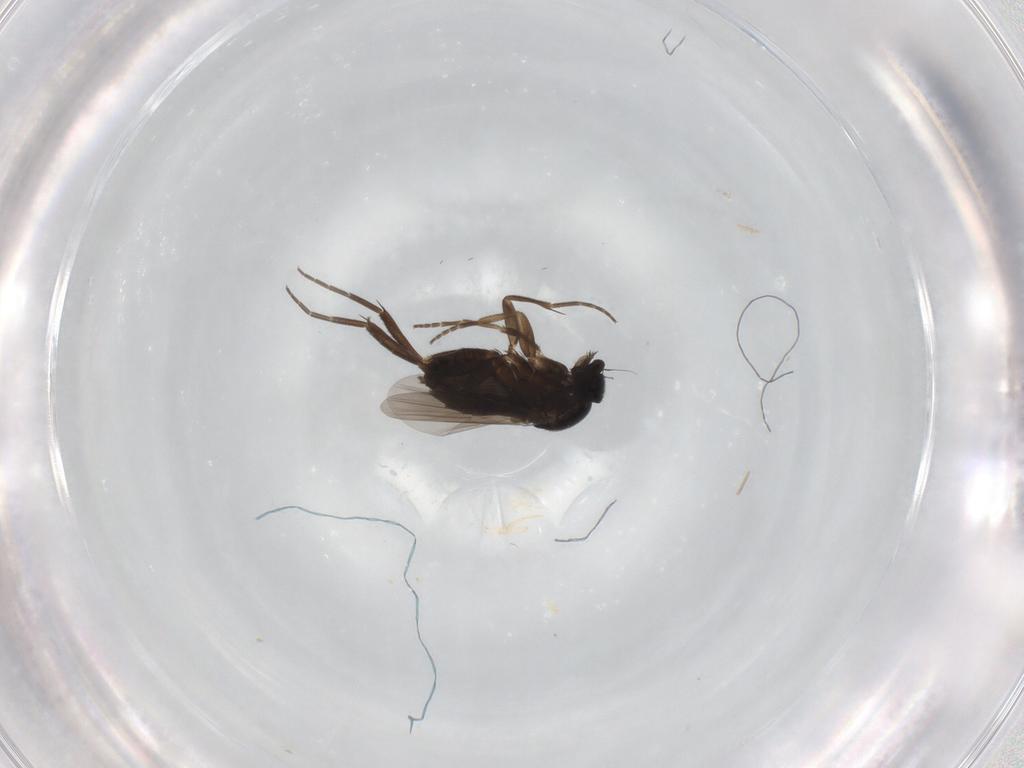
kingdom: Animalia
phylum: Arthropoda
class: Insecta
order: Diptera
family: Phoridae
